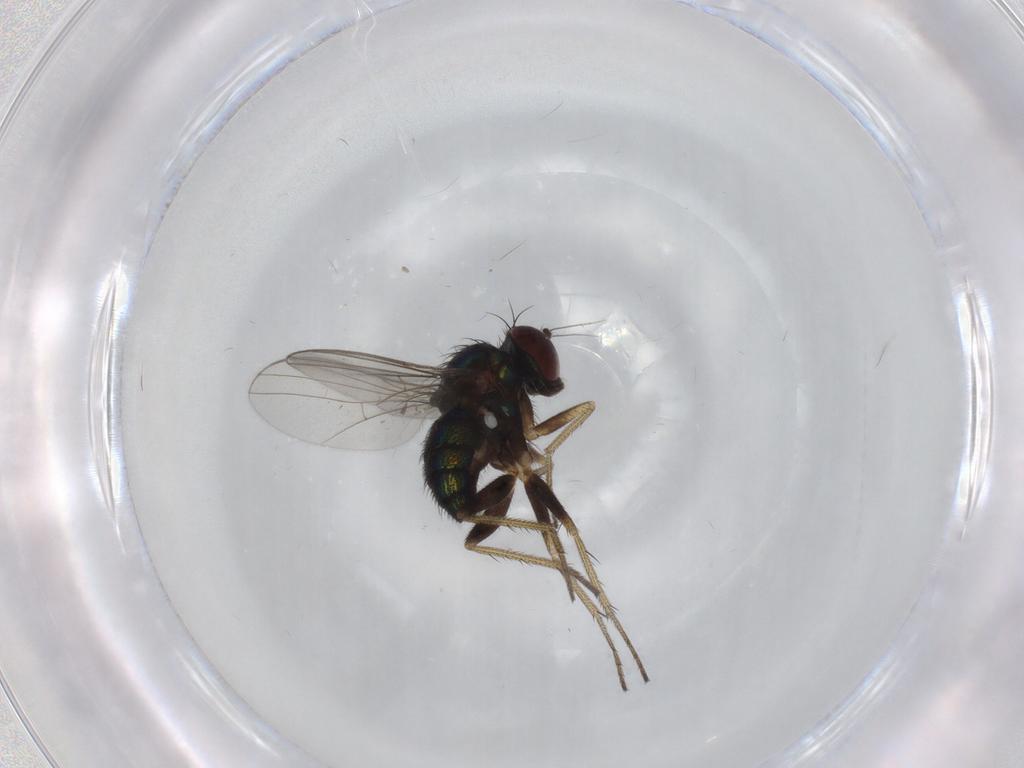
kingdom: Animalia
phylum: Arthropoda
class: Insecta
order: Diptera
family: Dolichopodidae
